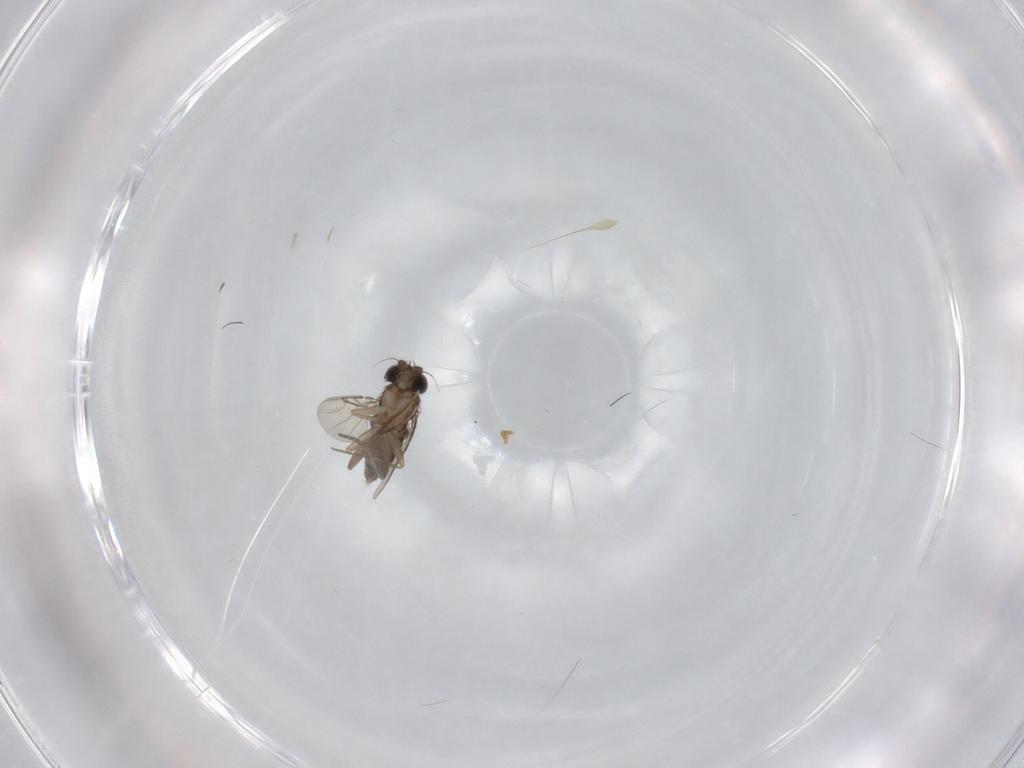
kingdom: Animalia
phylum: Arthropoda
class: Insecta
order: Diptera
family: Phoridae
